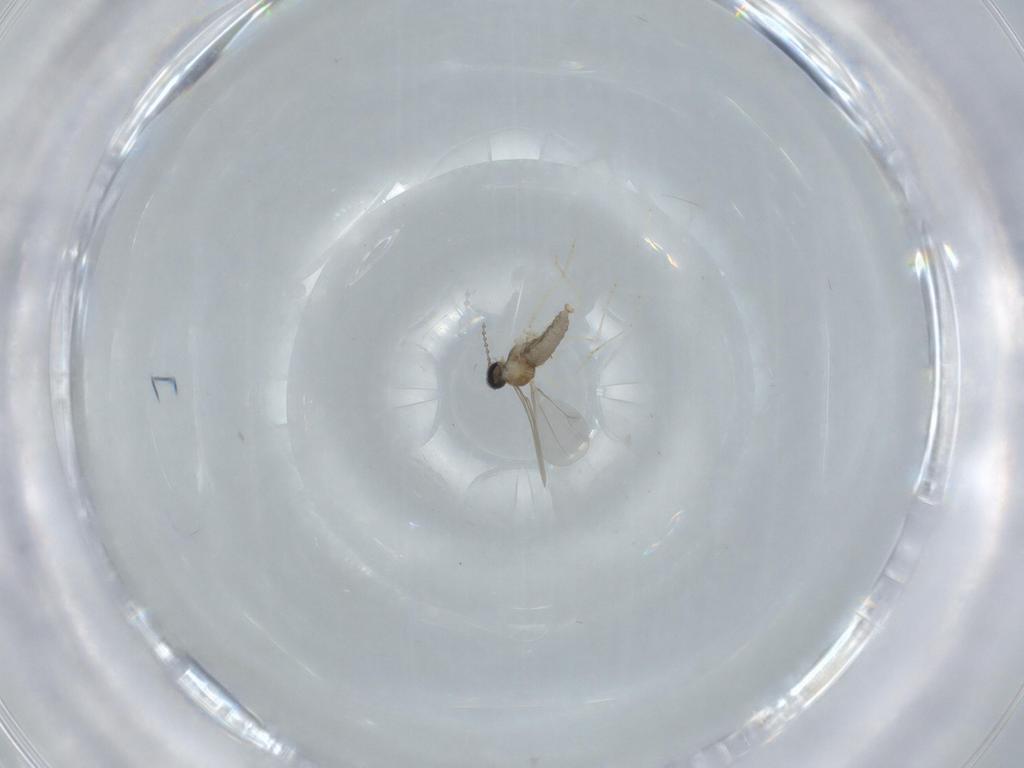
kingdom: Animalia
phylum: Arthropoda
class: Insecta
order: Diptera
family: Cecidomyiidae
